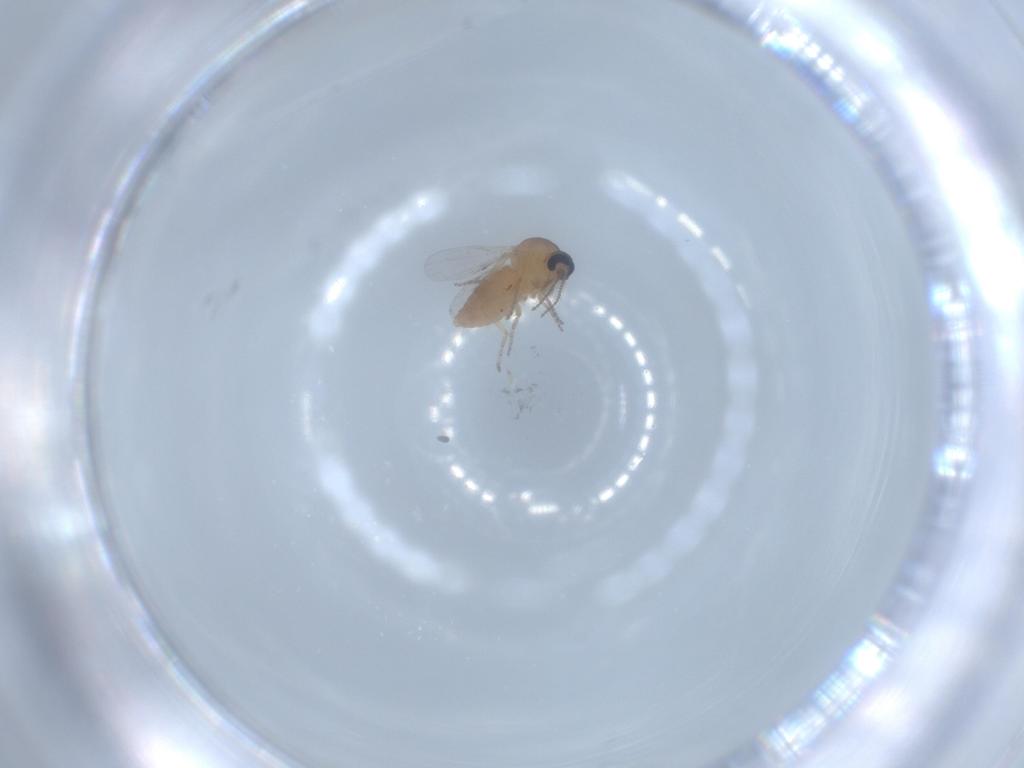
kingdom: Animalia
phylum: Arthropoda
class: Insecta
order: Diptera
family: Ceratopogonidae
